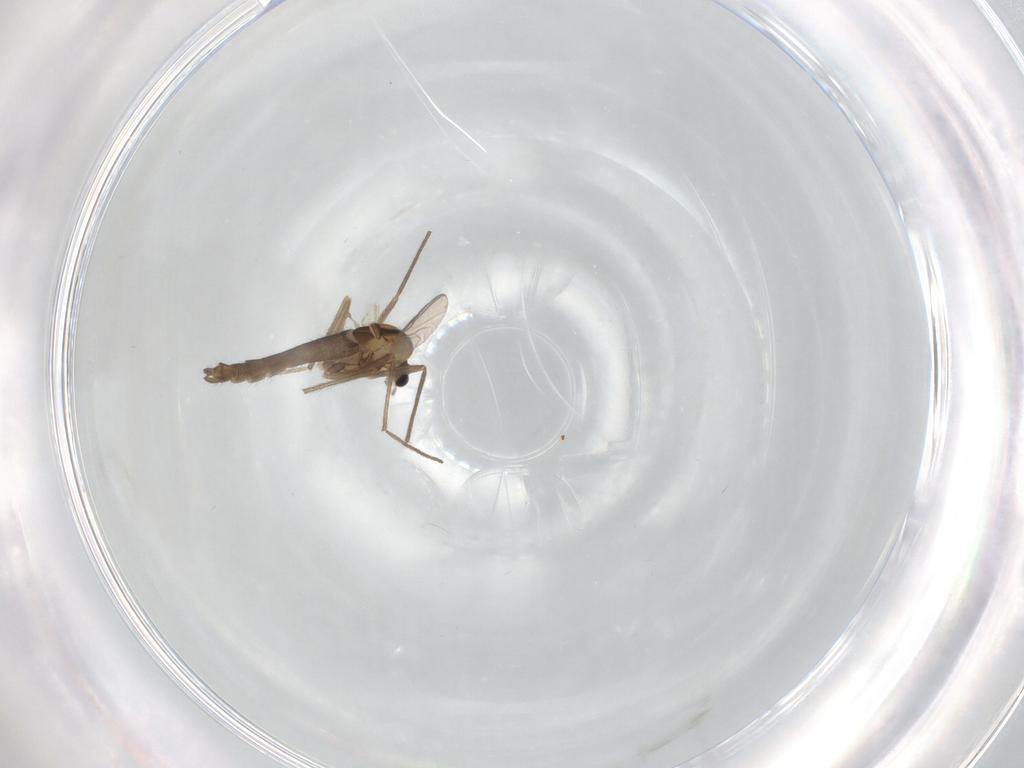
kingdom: Animalia
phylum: Arthropoda
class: Insecta
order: Diptera
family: Chironomidae
